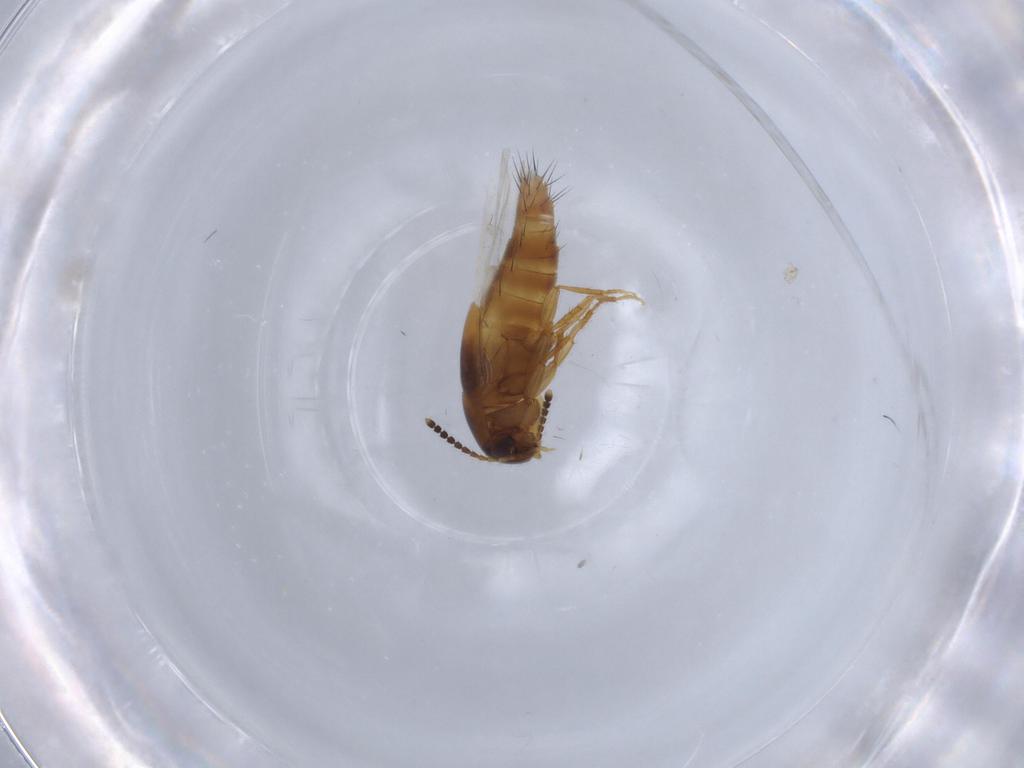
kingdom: Animalia
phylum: Arthropoda
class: Insecta
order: Coleoptera
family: Staphylinidae
